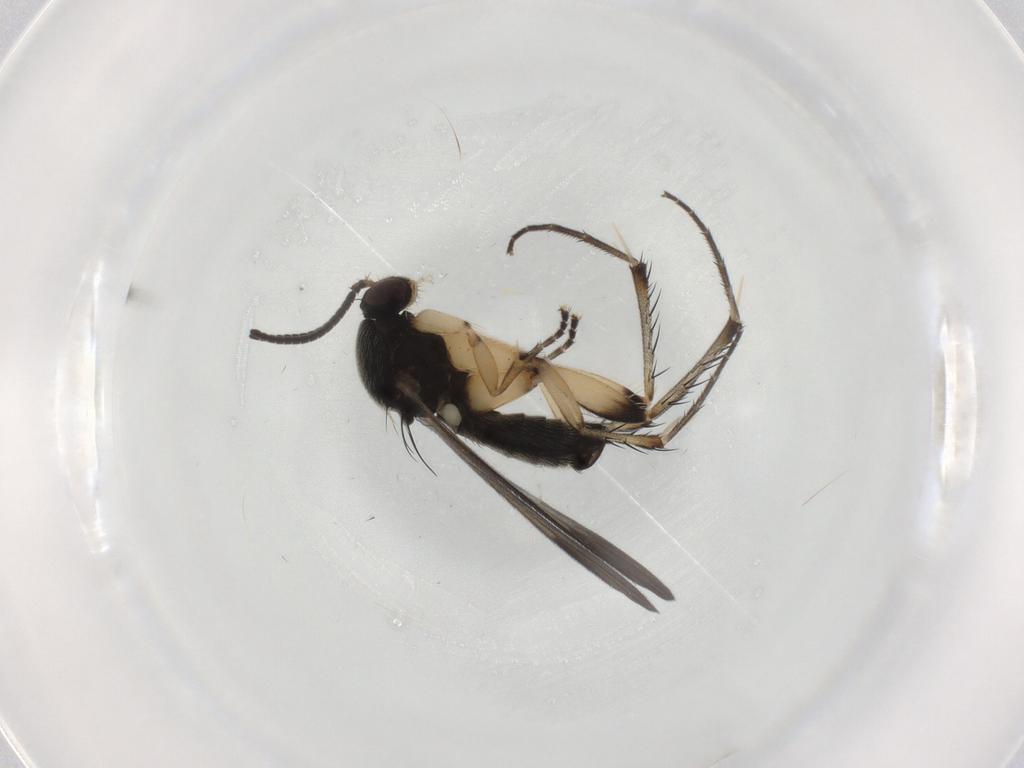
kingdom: Animalia
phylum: Arthropoda
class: Insecta
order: Diptera
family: Mycetophilidae
